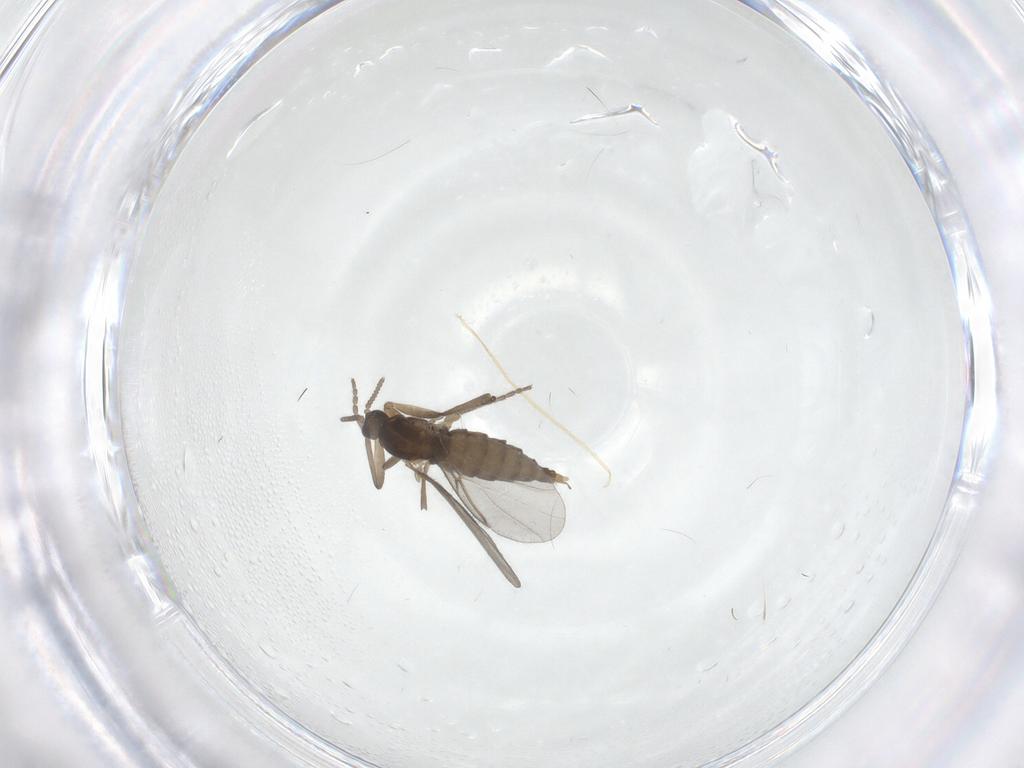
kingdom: Animalia
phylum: Arthropoda
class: Insecta
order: Diptera
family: Cecidomyiidae
